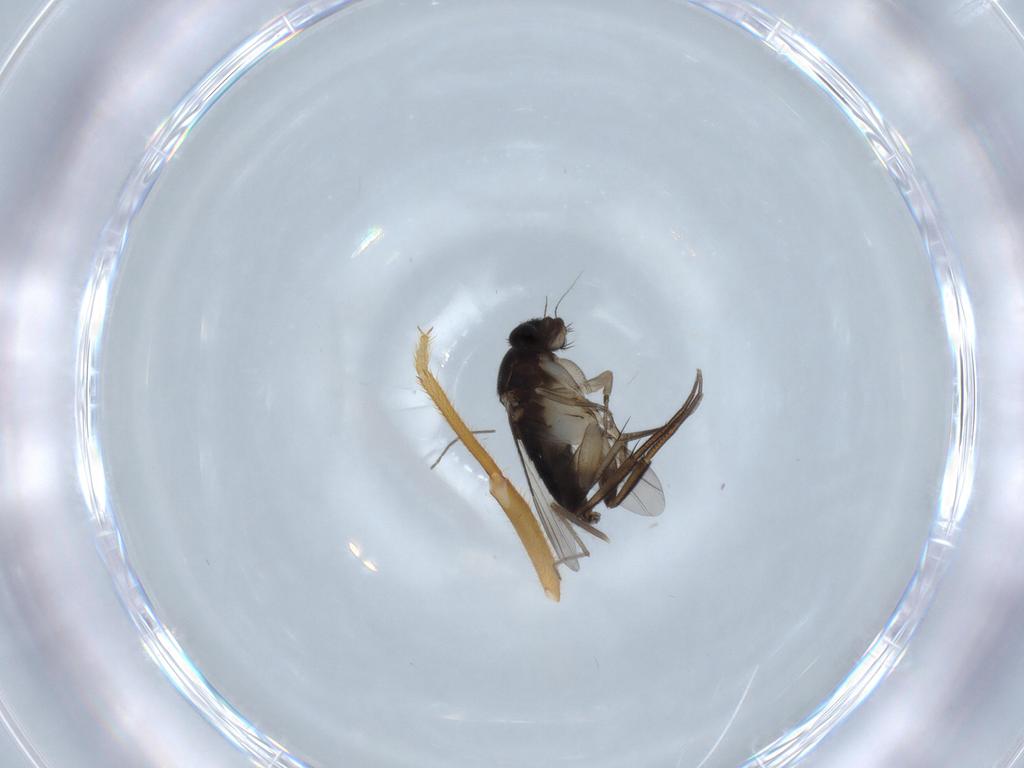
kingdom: Animalia
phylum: Arthropoda
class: Insecta
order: Diptera
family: Phoridae
